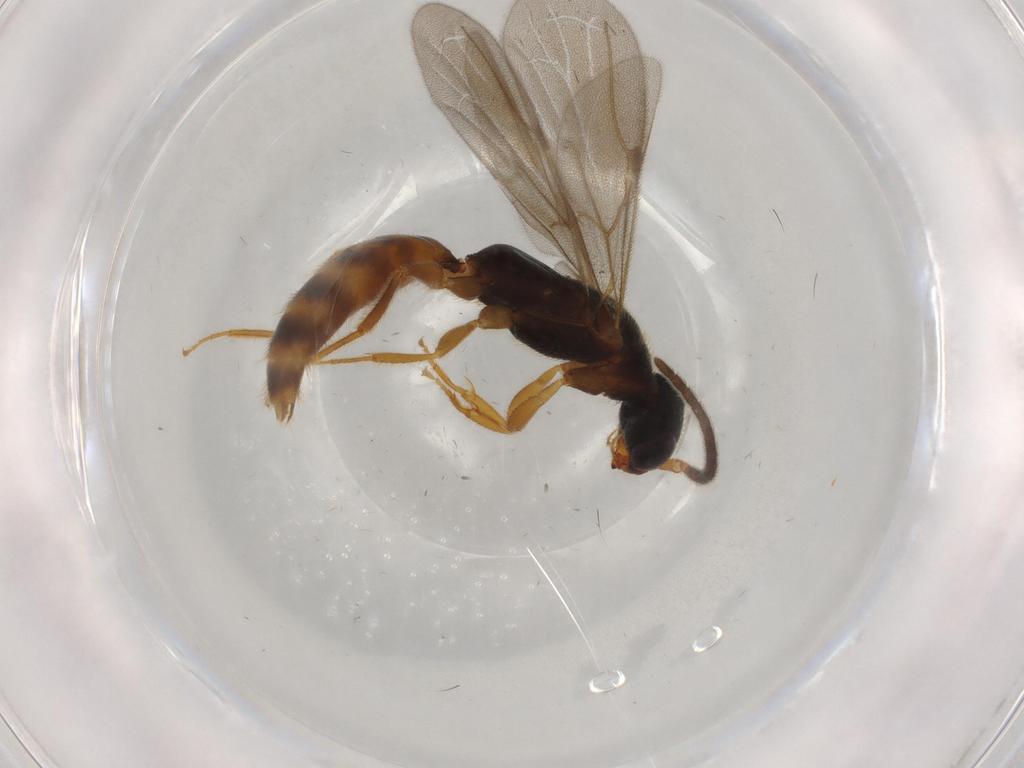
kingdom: Animalia
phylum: Arthropoda
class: Insecta
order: Hymenoptera
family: Bethylidae
